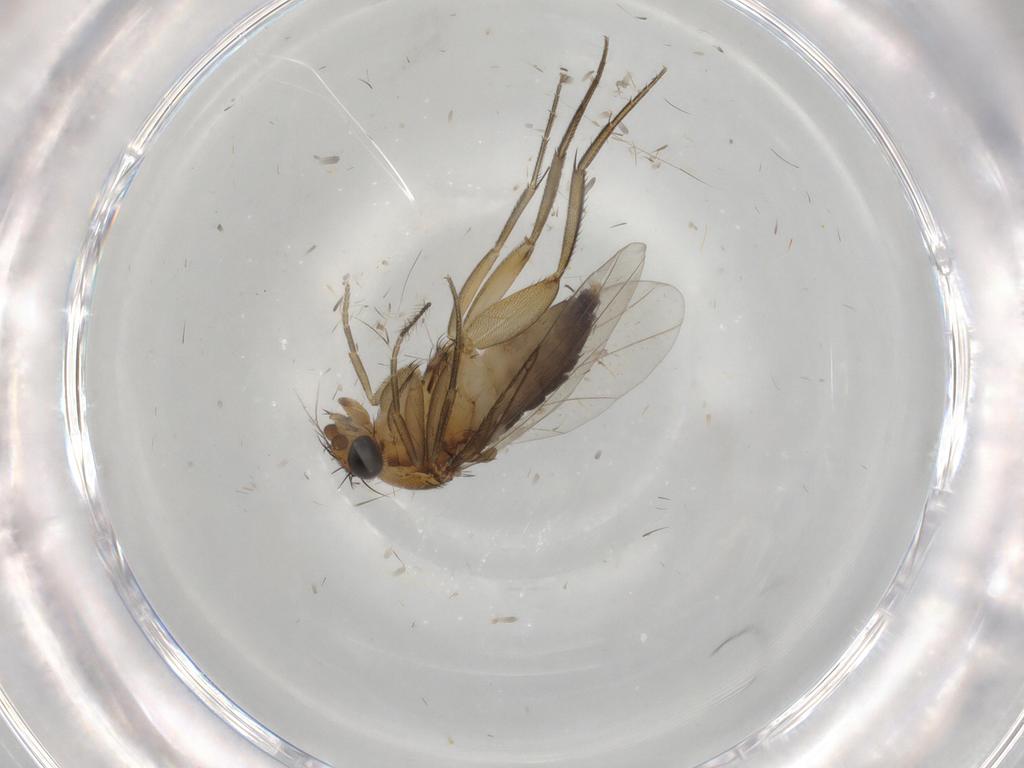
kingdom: Animalia
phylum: Arthropoda
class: Insecta
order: Diptera
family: Phoridae
